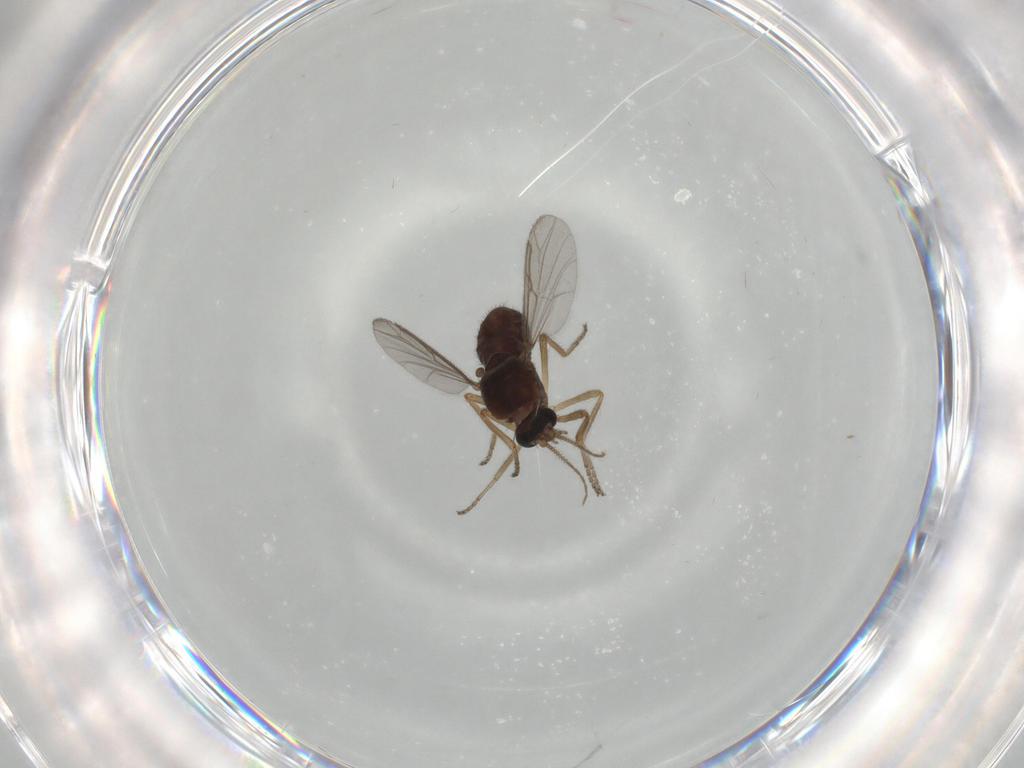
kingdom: Animalia
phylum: Arthropoda
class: Insecta
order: Diptera
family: Ceratopogonidae
